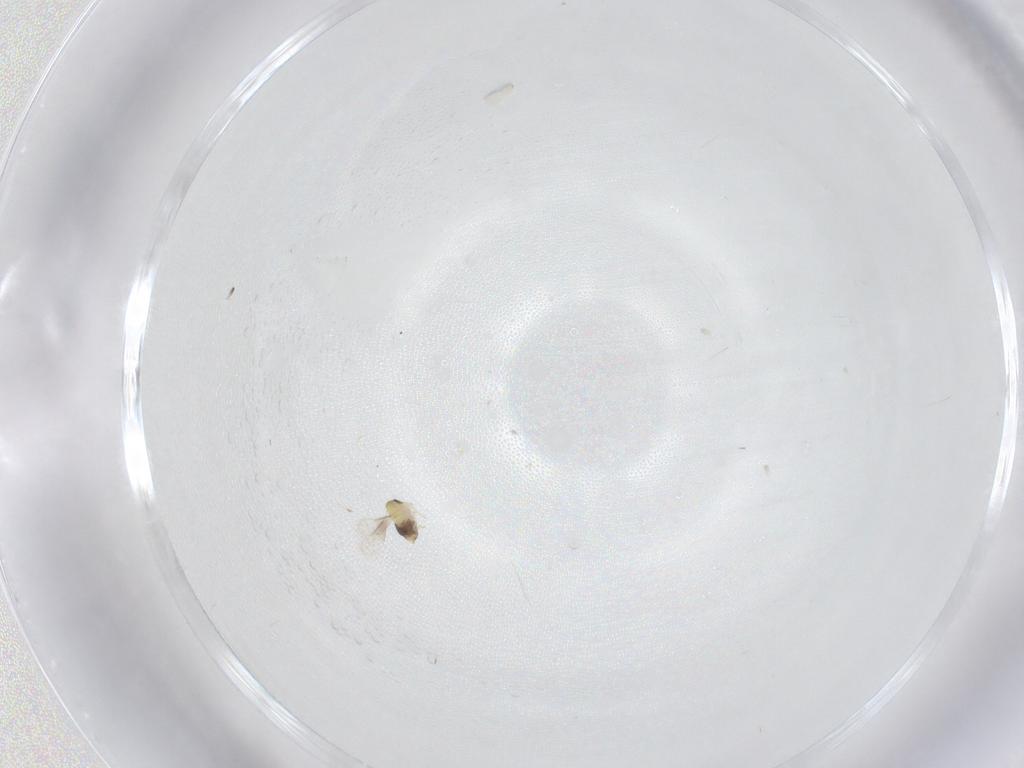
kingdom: Animalia
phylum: Arthropoda
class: Insecta
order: Hymenoptera
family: Aphelinidae
